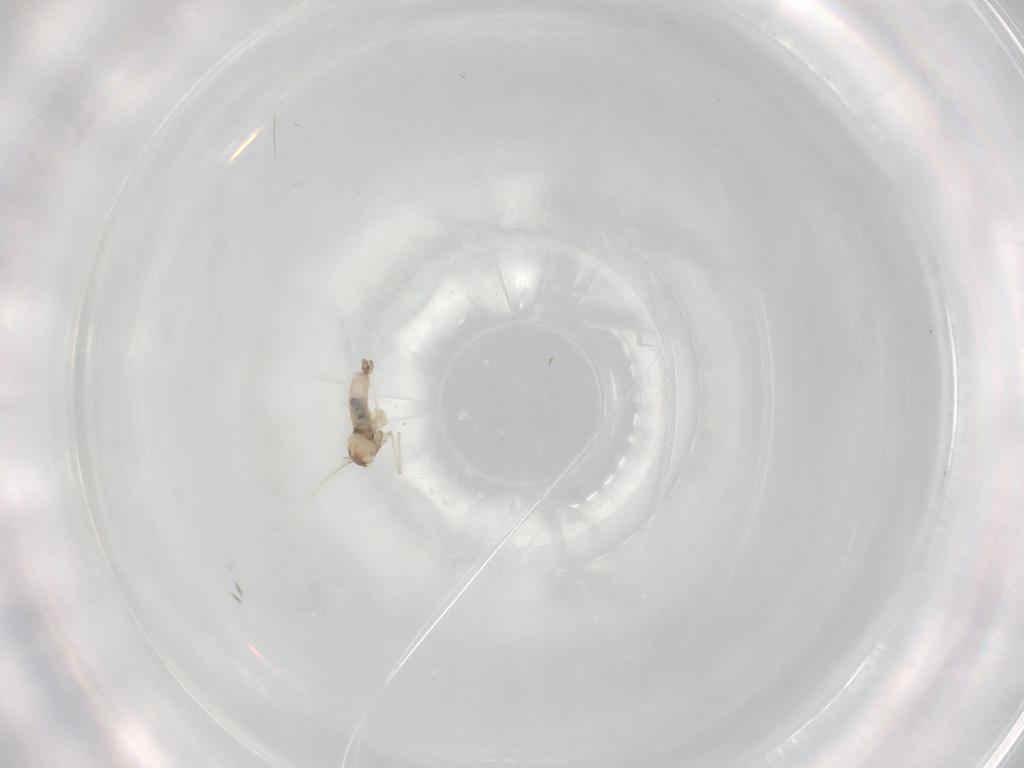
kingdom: Animalia
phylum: Arthropoda
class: Insecta
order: Diptera
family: Cecidomyiidae
